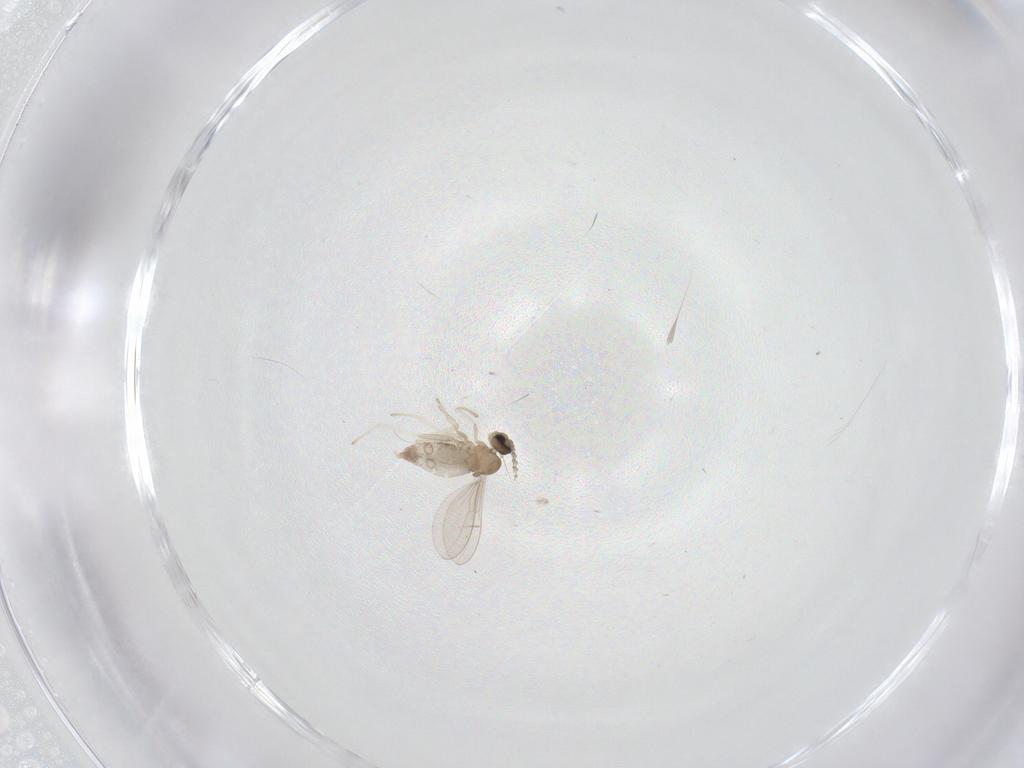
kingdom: Animalia
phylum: Arthropoda
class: Insecta
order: Diptera
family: Cecidomyiidae
